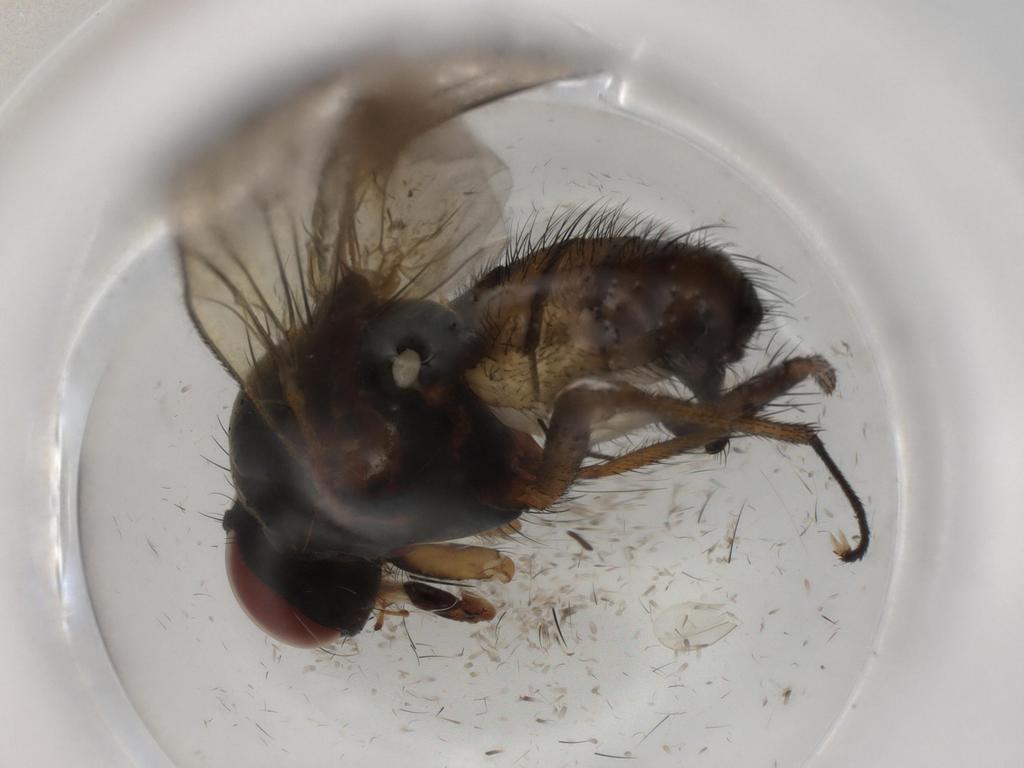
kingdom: Animalia
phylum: Arthropoda
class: Insecta
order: Diptera
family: Anthomyiidae
